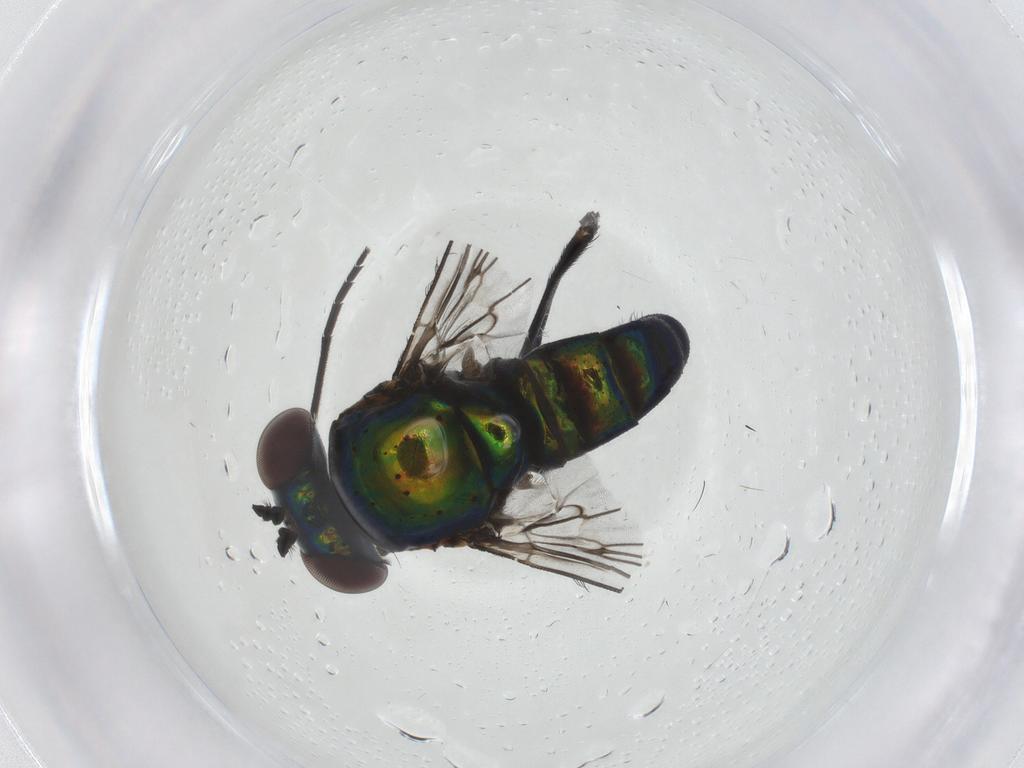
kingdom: Animalia
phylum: Arthropoda
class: Insecta
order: Diptera
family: Dolichopodidae
